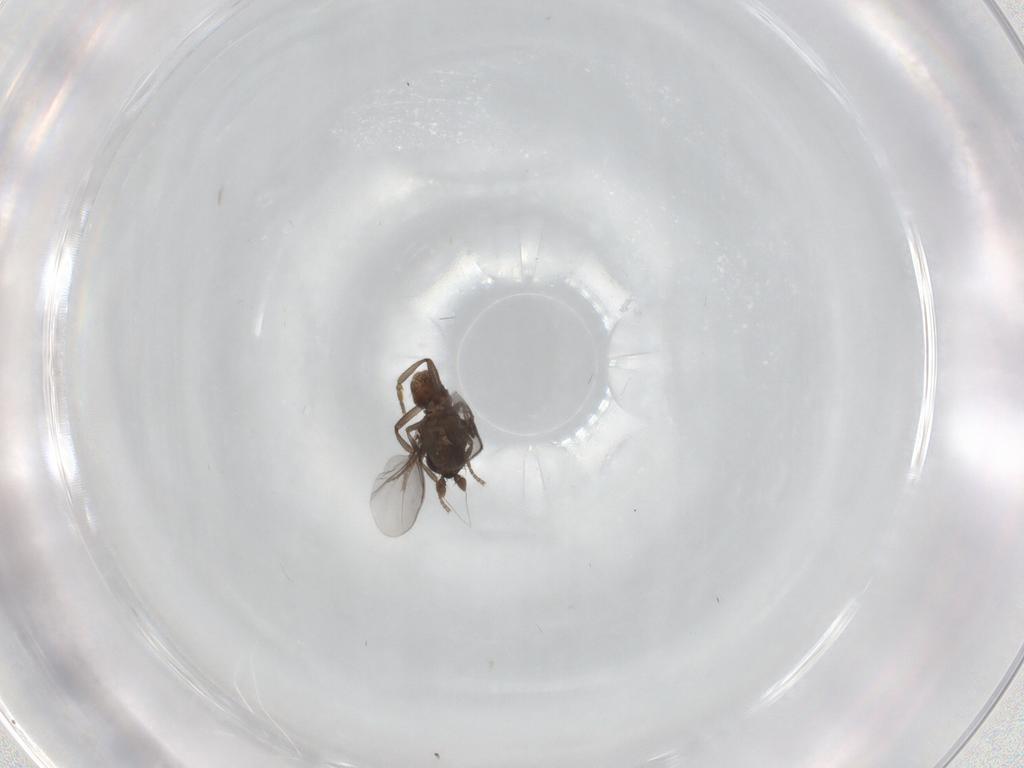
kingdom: Animalia
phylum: Arthropoda
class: Insecta
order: Diptera
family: Sphaeroceridae
